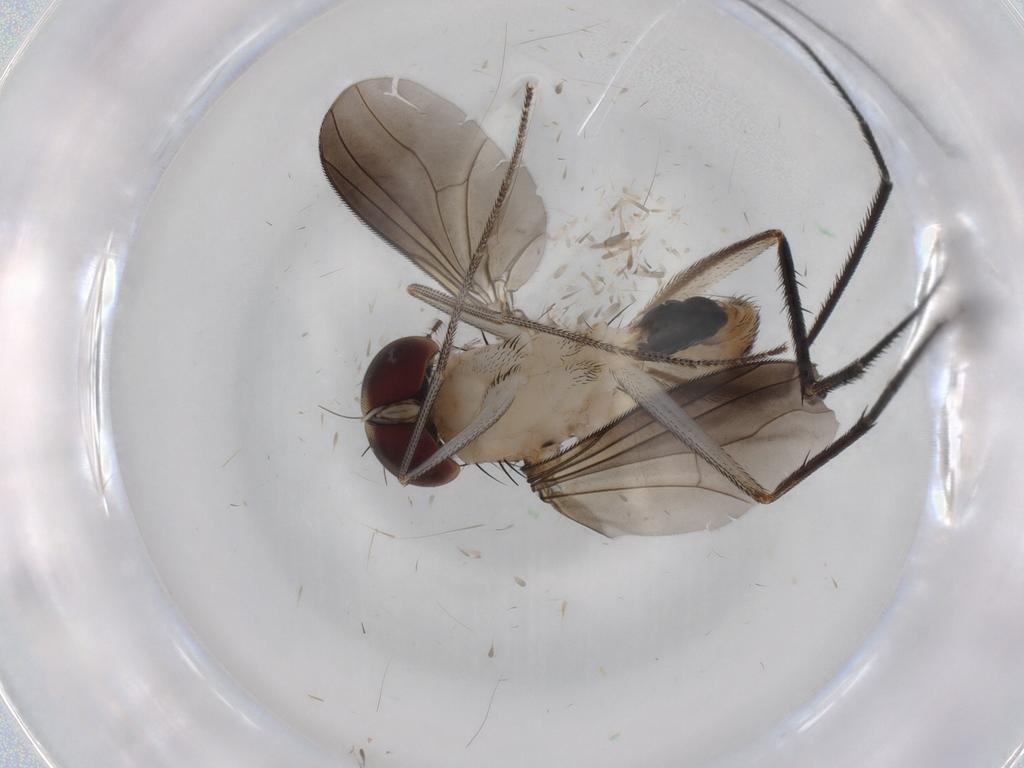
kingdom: Animalia
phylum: Arthropoda
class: Insecta
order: Diptera
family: Dolichopodidae
